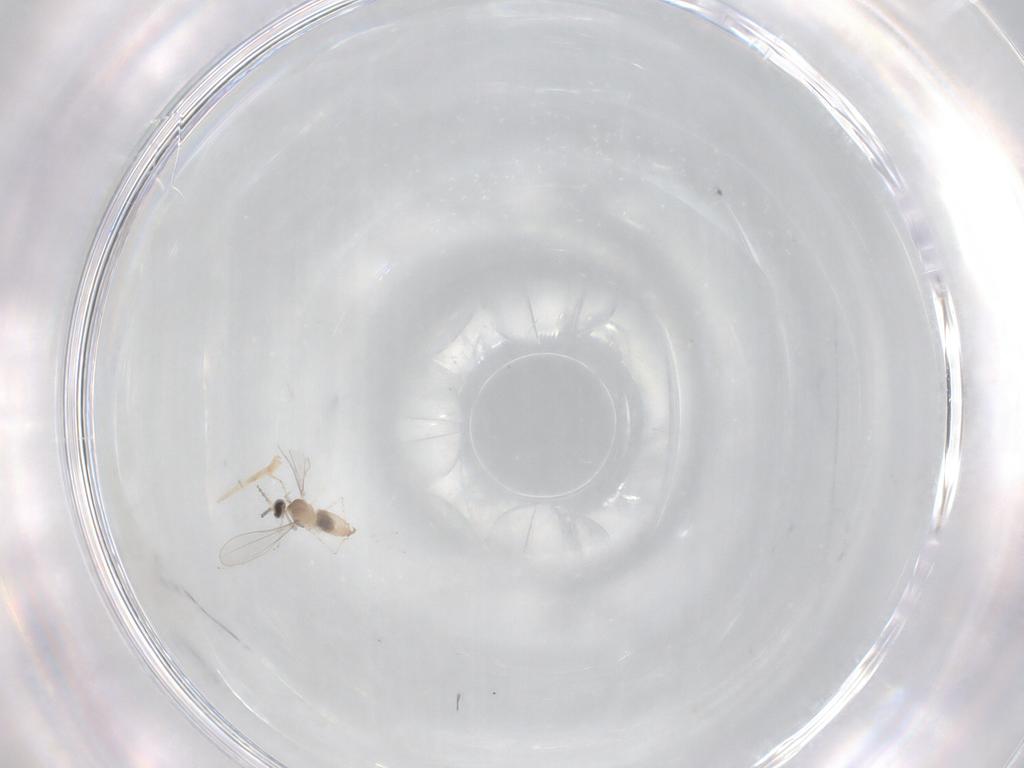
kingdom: Animalia
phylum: Arthropoda
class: Insecta
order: Diptera
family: Cecidomyiidae
